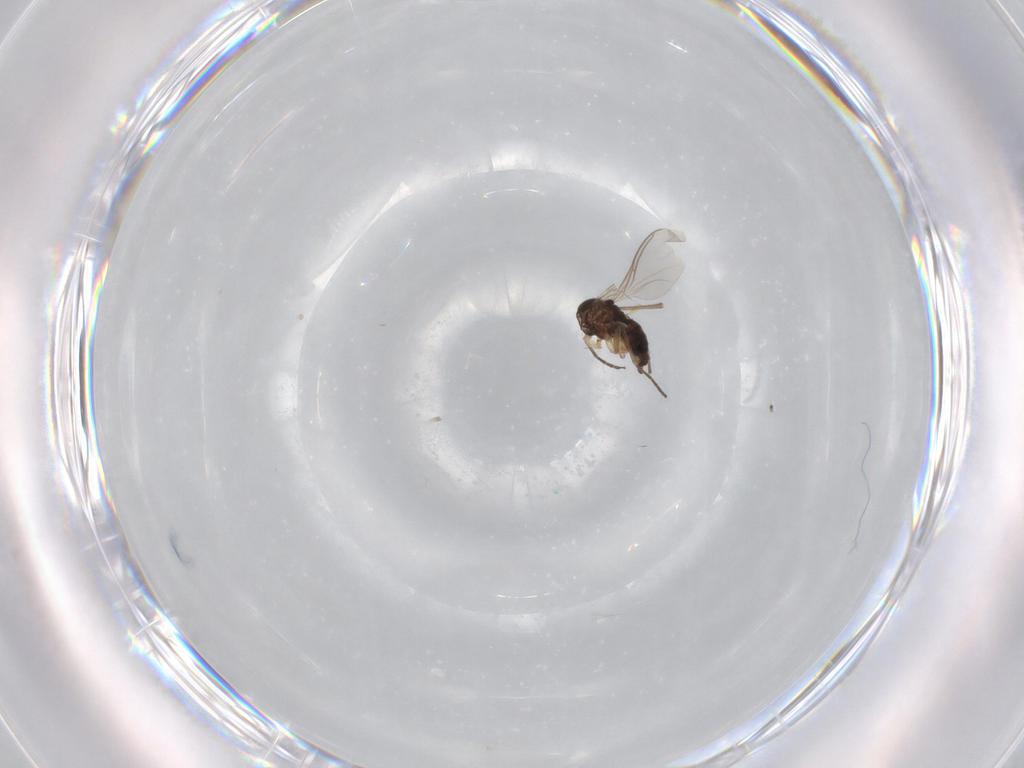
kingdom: Animalia
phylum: Arthropoda
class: Insecta
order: Diptera
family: Sciaridae
